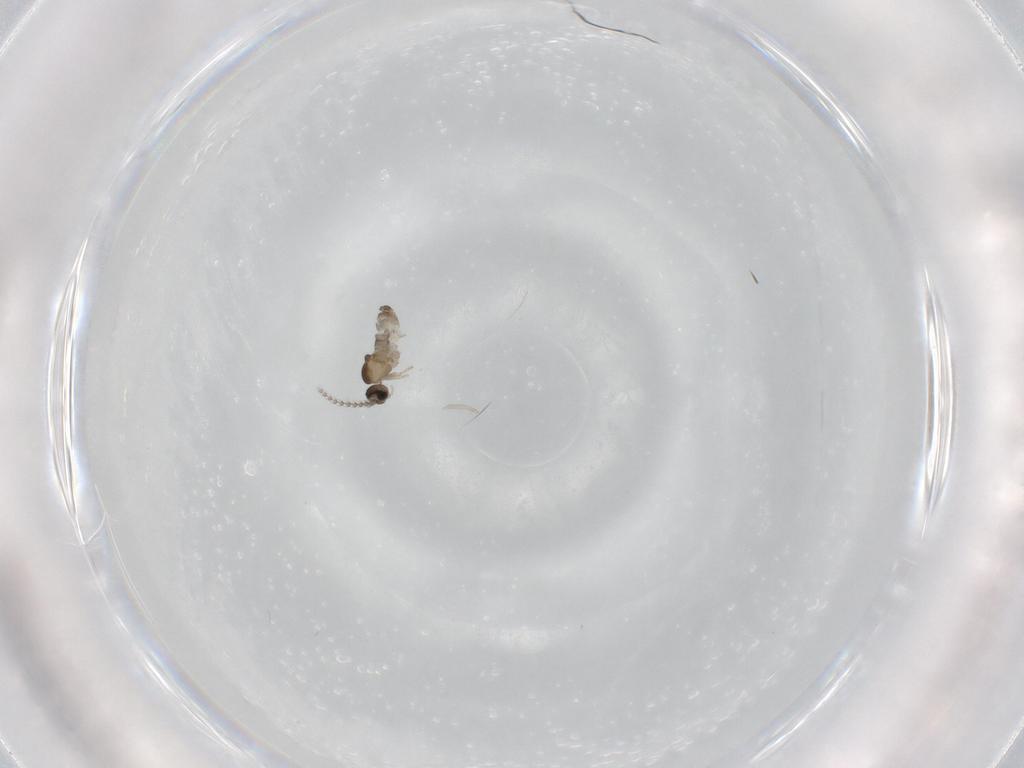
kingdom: Animalia
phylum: Arthropoda
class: Insecta
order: Diptera
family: Cecidomyiidae
